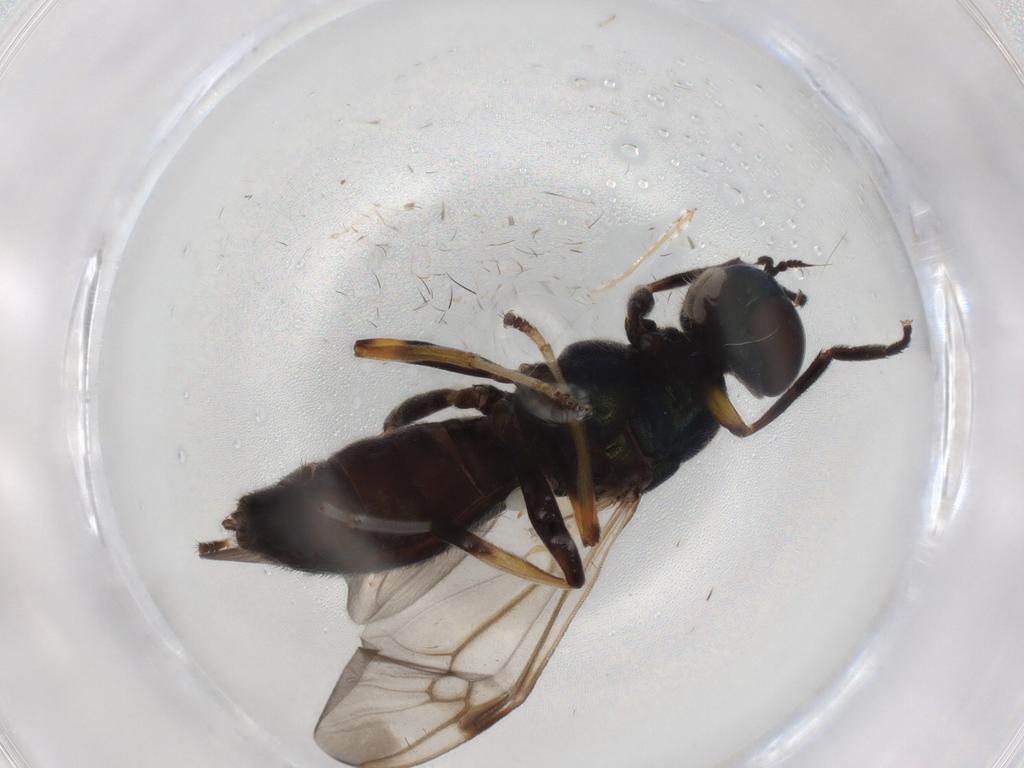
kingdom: Animalia
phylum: Arthropoda
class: Insecta
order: Diptera
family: Stratiomyidae
